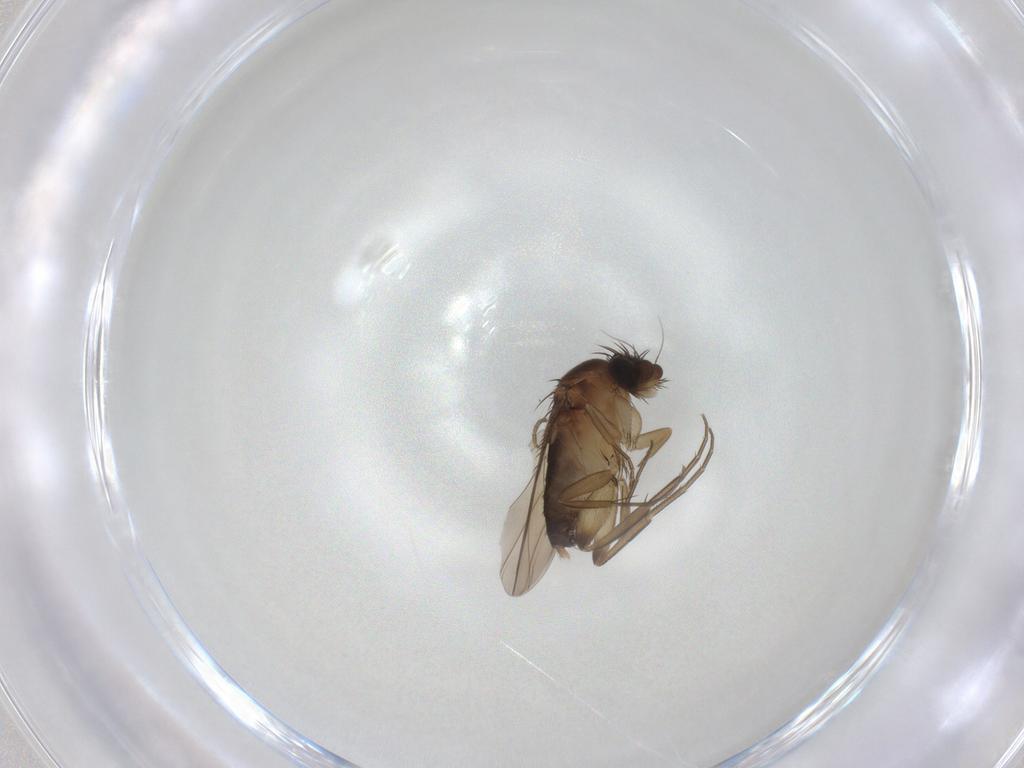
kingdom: Animalia
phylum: Arthropoda
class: Insecta
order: Diptera
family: Phoridae
